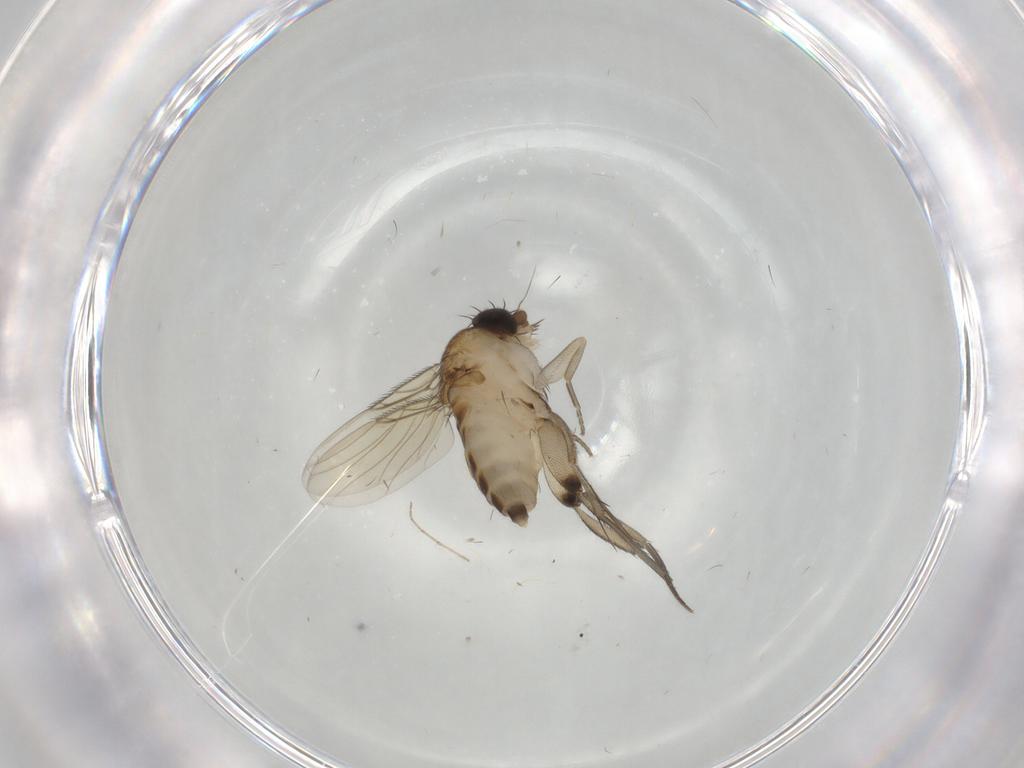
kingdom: Animalia
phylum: Arthropoda
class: Insecta
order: Diptera
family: Phoridae
